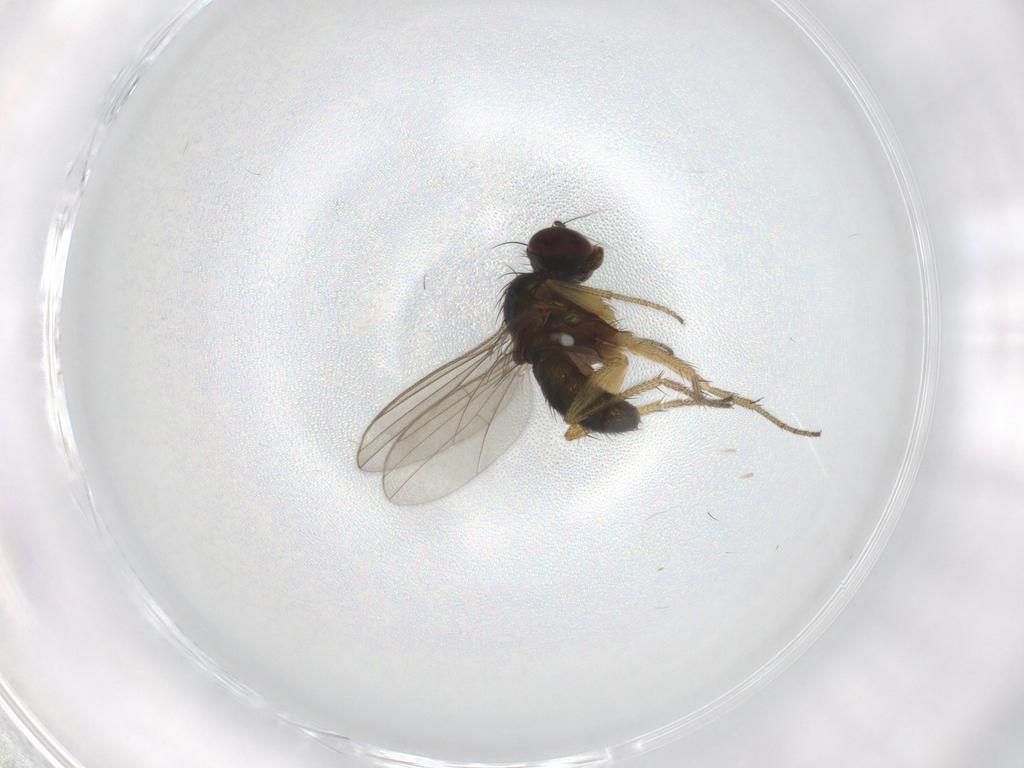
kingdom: Animalia
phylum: Arthropoda
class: Insecta
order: Diptera
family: Dolichopodidae
